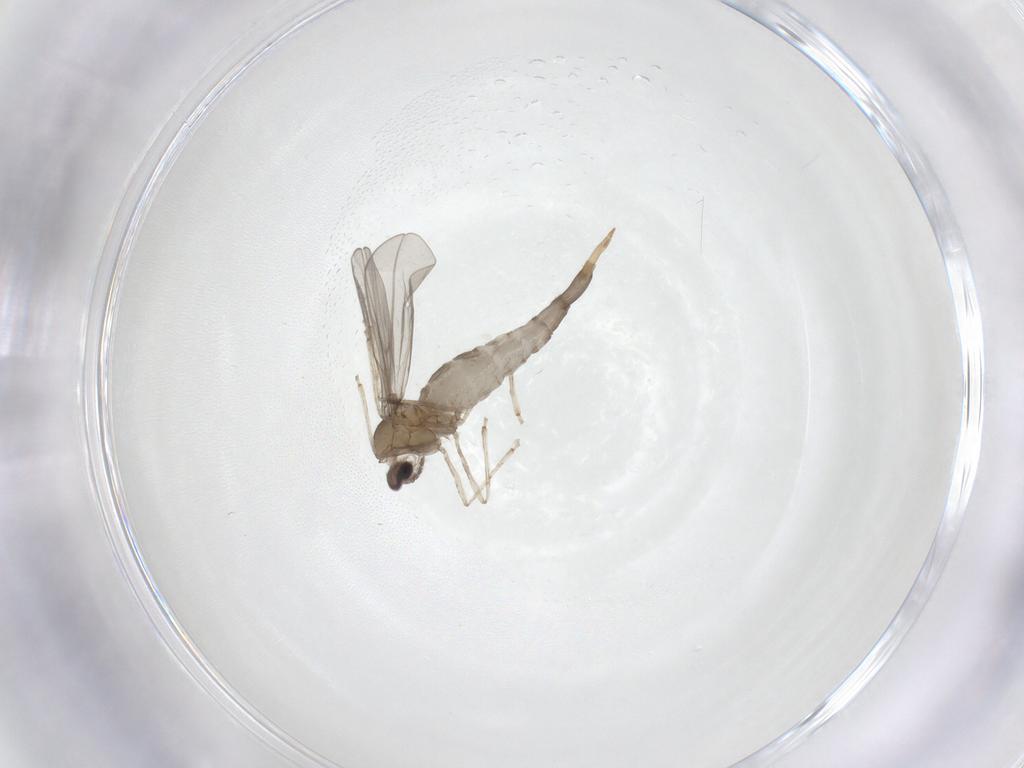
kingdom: Animalia
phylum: Arthropoda
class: Insecta
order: Diptera
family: Cecidomyiidae
